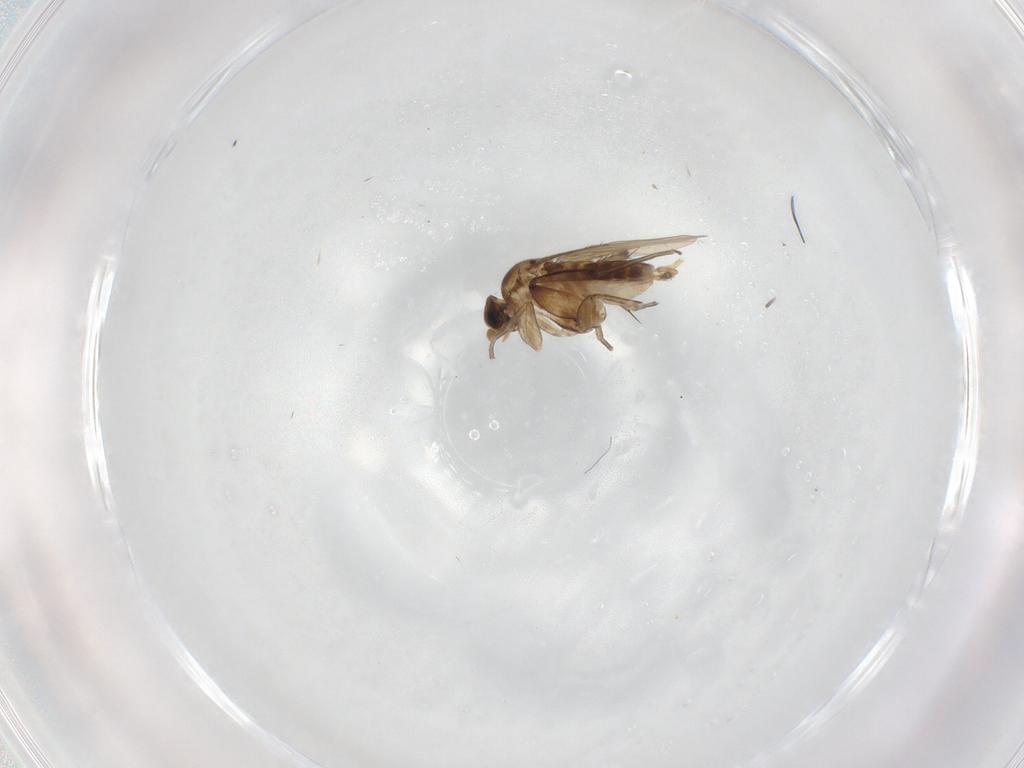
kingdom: Animalia
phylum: Arthropoda
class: Insecta
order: Diptera
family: Phoridae
